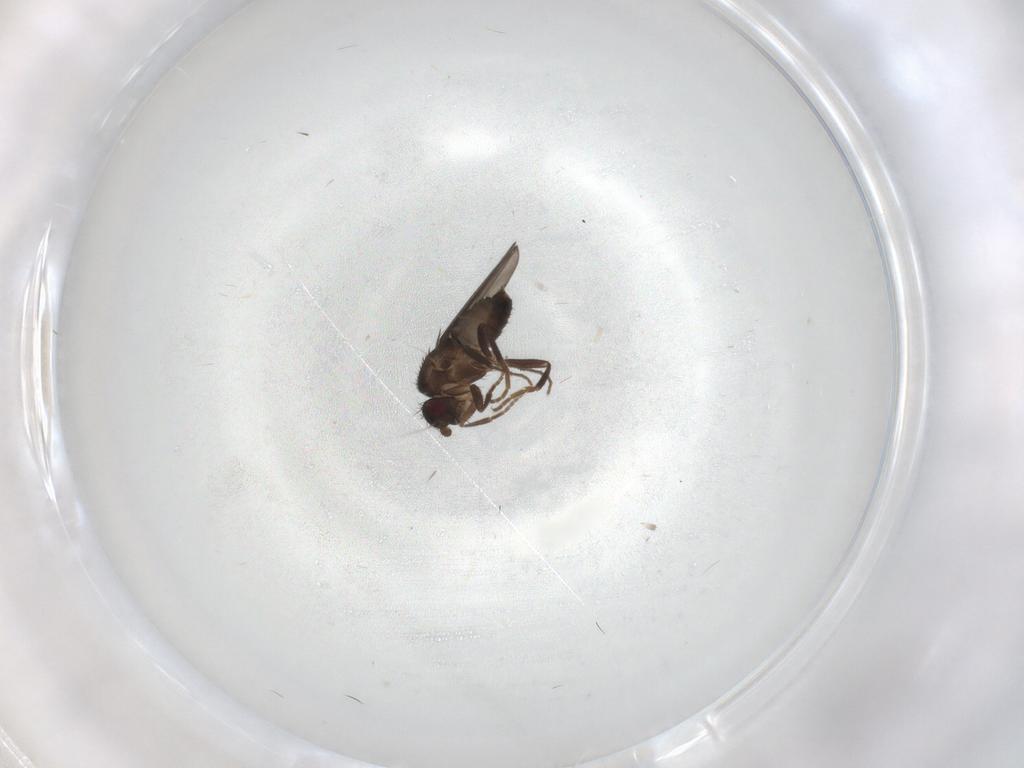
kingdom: Animalia
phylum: Arthropoda
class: Insecta
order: Diptera
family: Sphaeroceridae
